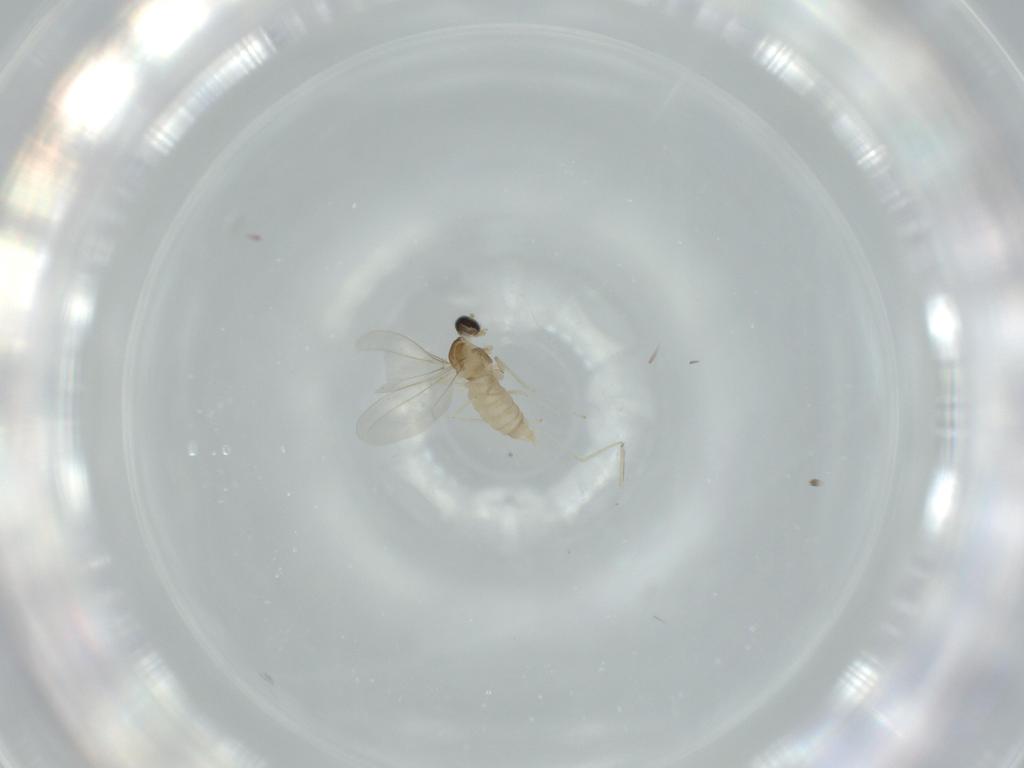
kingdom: Animalia
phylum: Arthropoda
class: Insecta
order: Diptera
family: Cecidomyiidae
